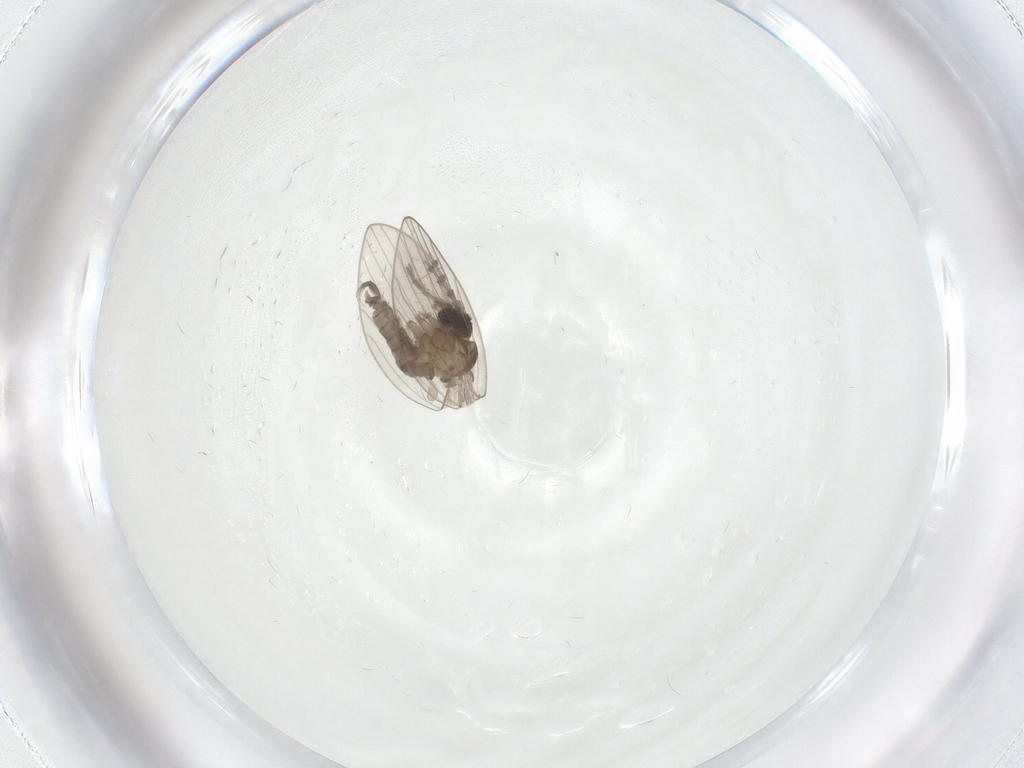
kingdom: Animalia
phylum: Arthropoda
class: Insecta
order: Diptera
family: Psychodidae
